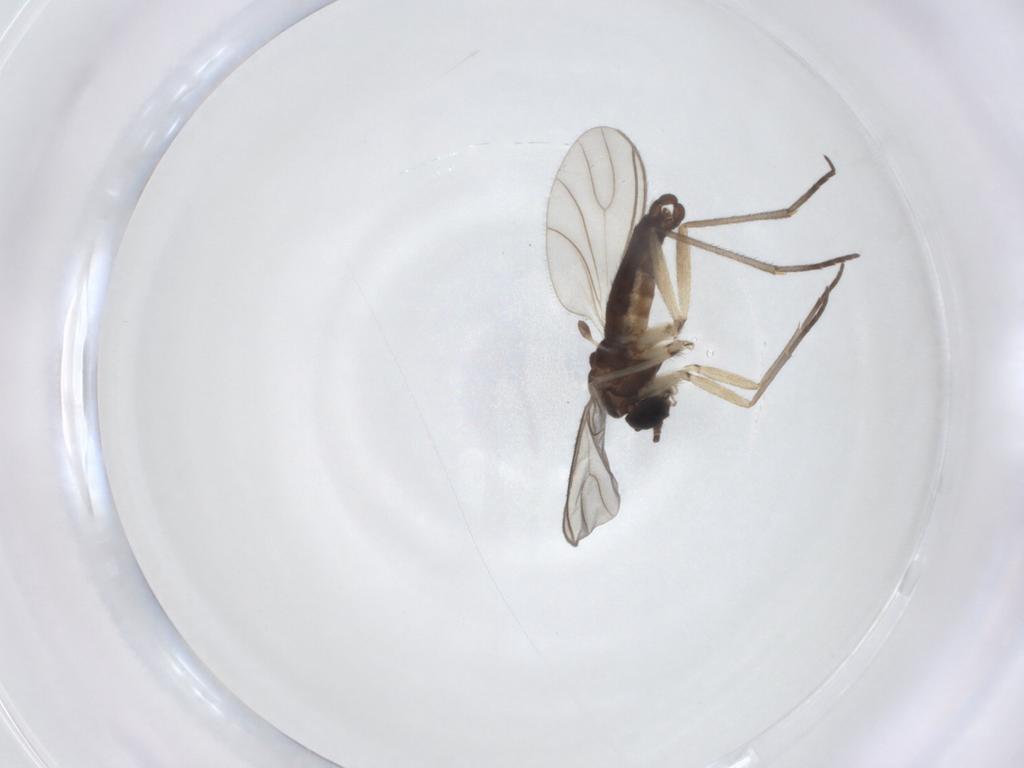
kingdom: Animalia
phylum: Arthropoda
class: Insecta
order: Diptera
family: Sciaridae
